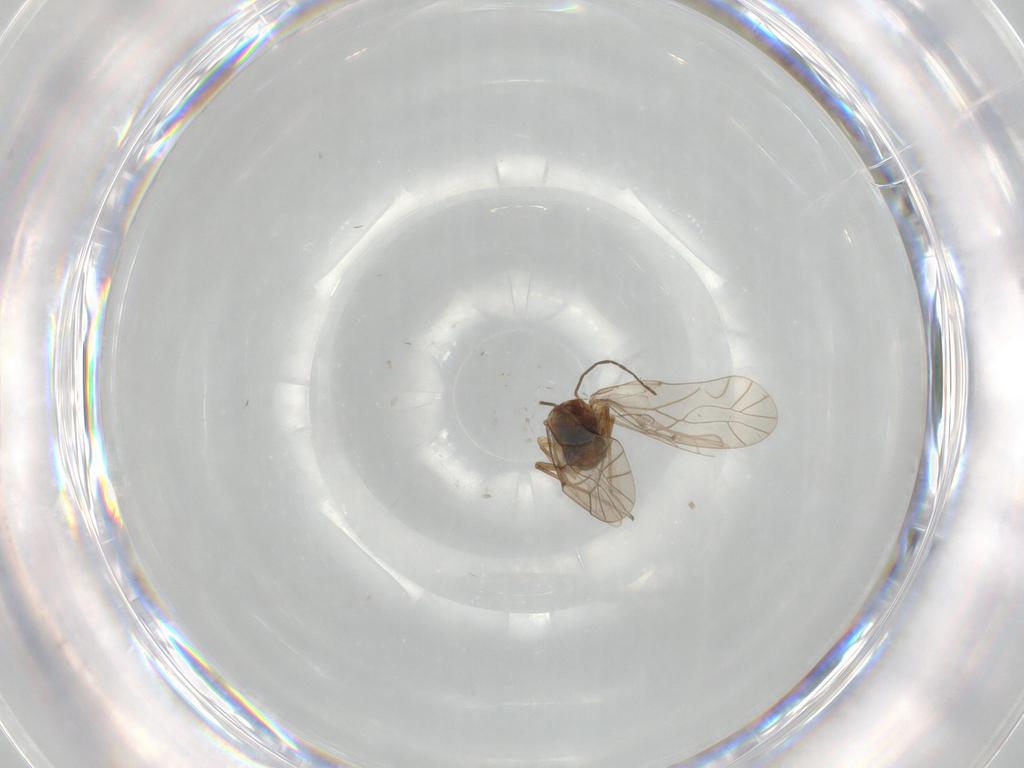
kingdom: Animalia
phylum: Arthropoda
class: Insecta
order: Psocodea
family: Lachesillidae
